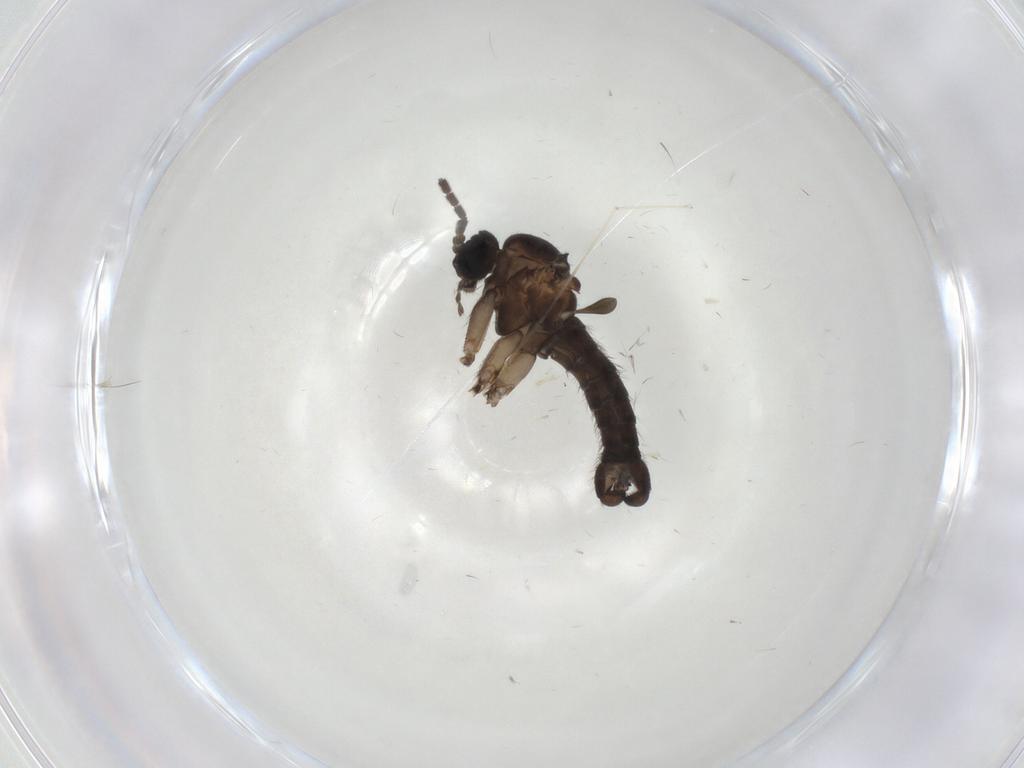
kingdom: Animalia
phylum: Arthropoda
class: Insecta
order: Diptera
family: Sciaridae
